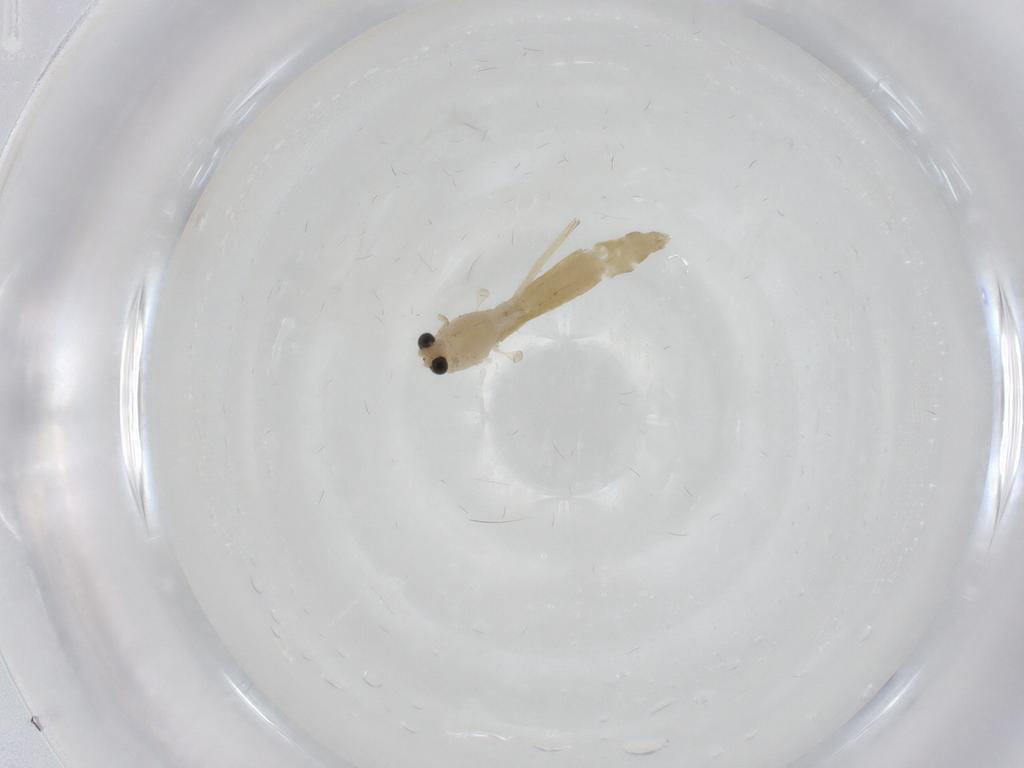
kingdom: Animalia
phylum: Arthropoda
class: Insecta
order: Diptera
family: Chironomidae
